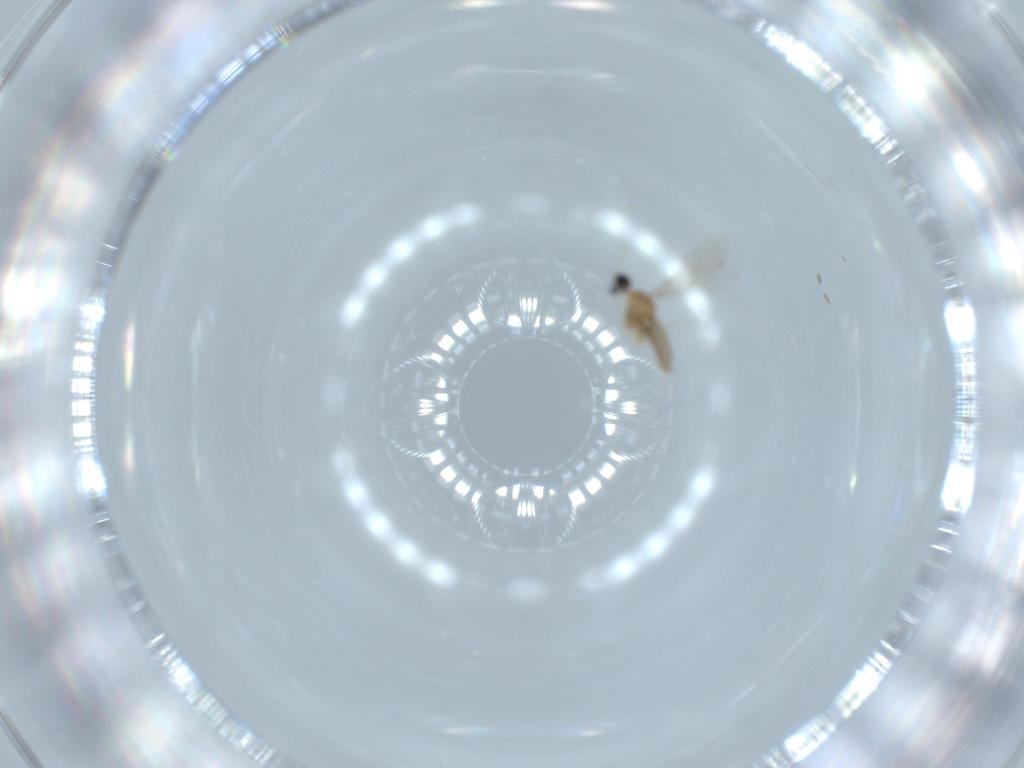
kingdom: Animalia
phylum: Arthropoda
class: Insecta
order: Diptera
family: Cecidomyiidae
